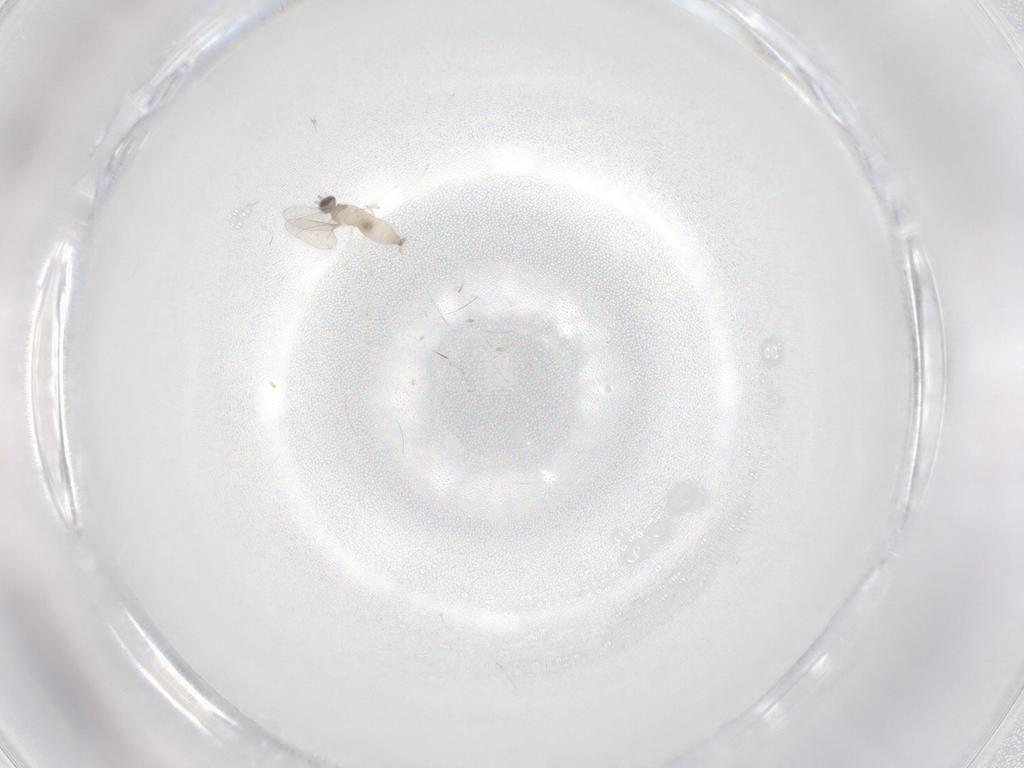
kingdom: Animalia
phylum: Arthropoda
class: Insecta
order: Diptera
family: Cecidomyiidae
